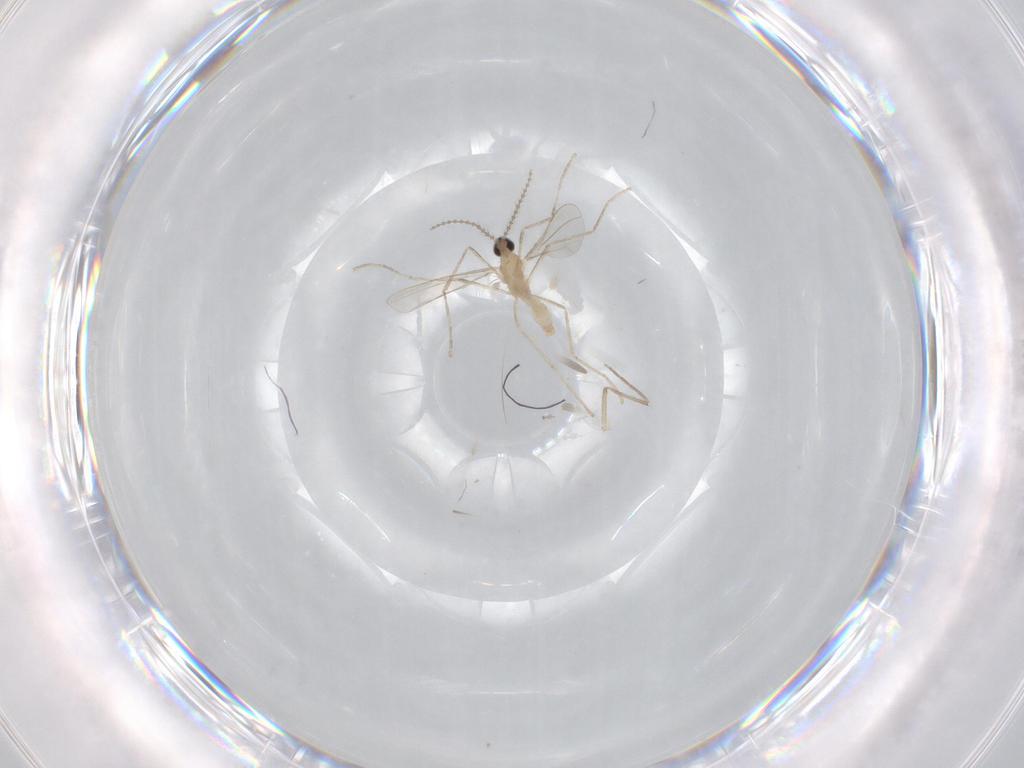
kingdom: Animalia
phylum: Arthropoda
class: Insecta
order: Diptera
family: Cecidomyiidae
